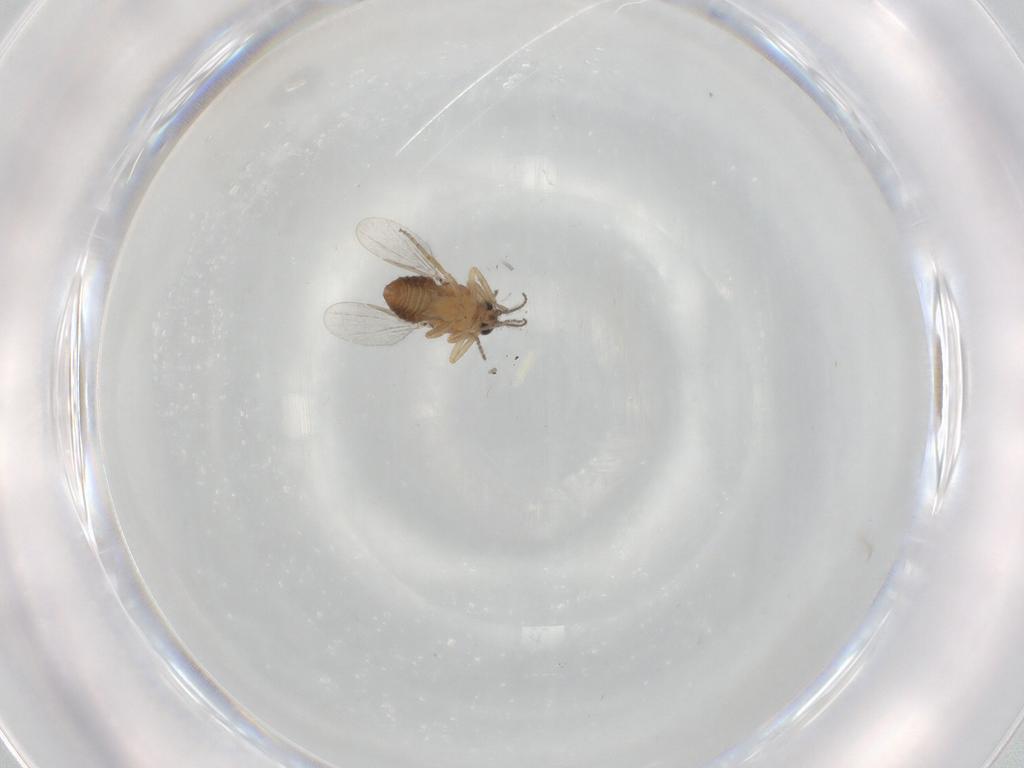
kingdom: Animalia
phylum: Arthropoda
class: Insecta
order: Diptera
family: Ceratopogonidae
